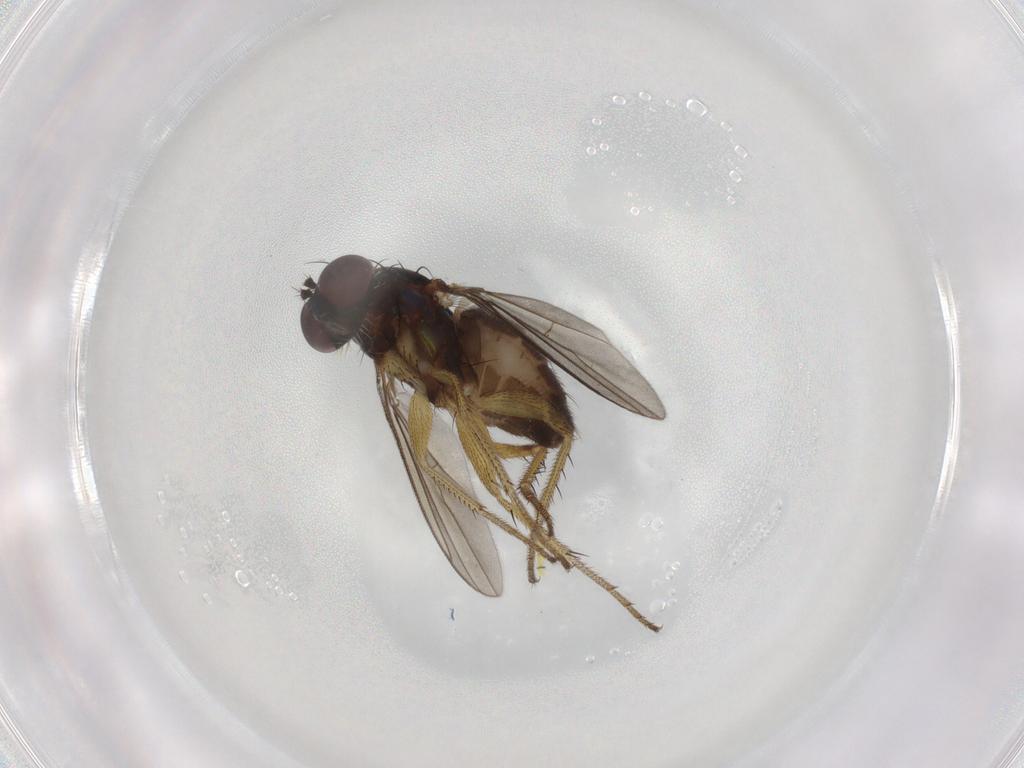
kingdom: Animalia
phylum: Arthropoda
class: Insecta
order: Diptera
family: Dolichopodidae
